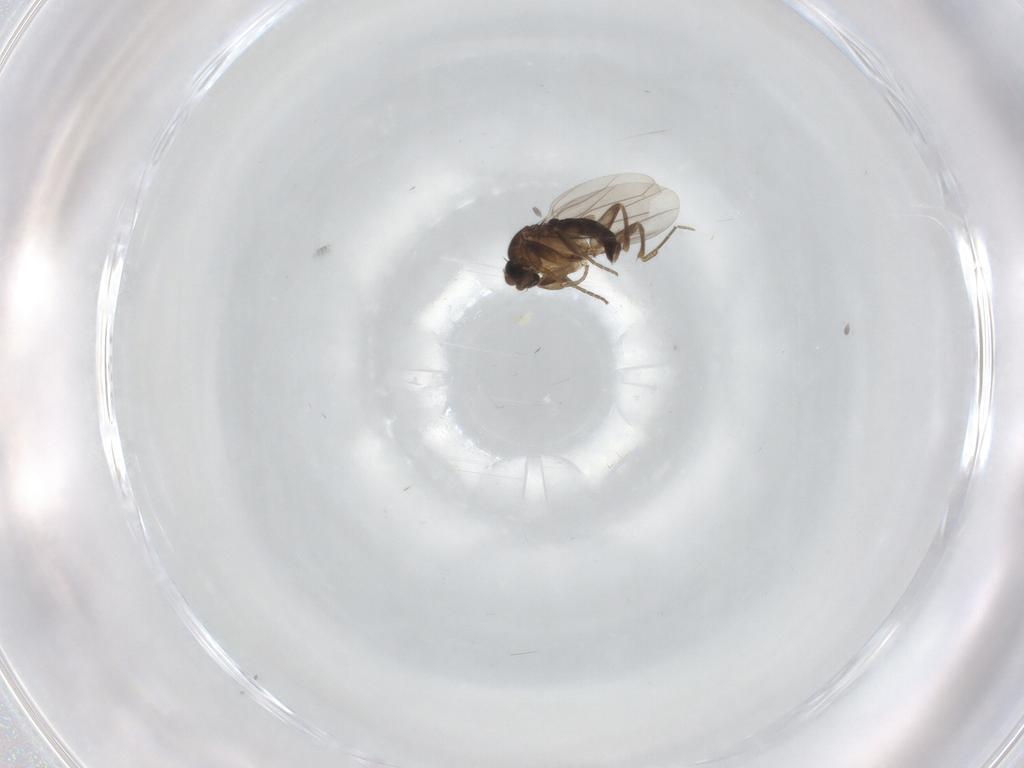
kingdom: Animalia
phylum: Arthropoda
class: Insecta
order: Diptera
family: Phoridae
